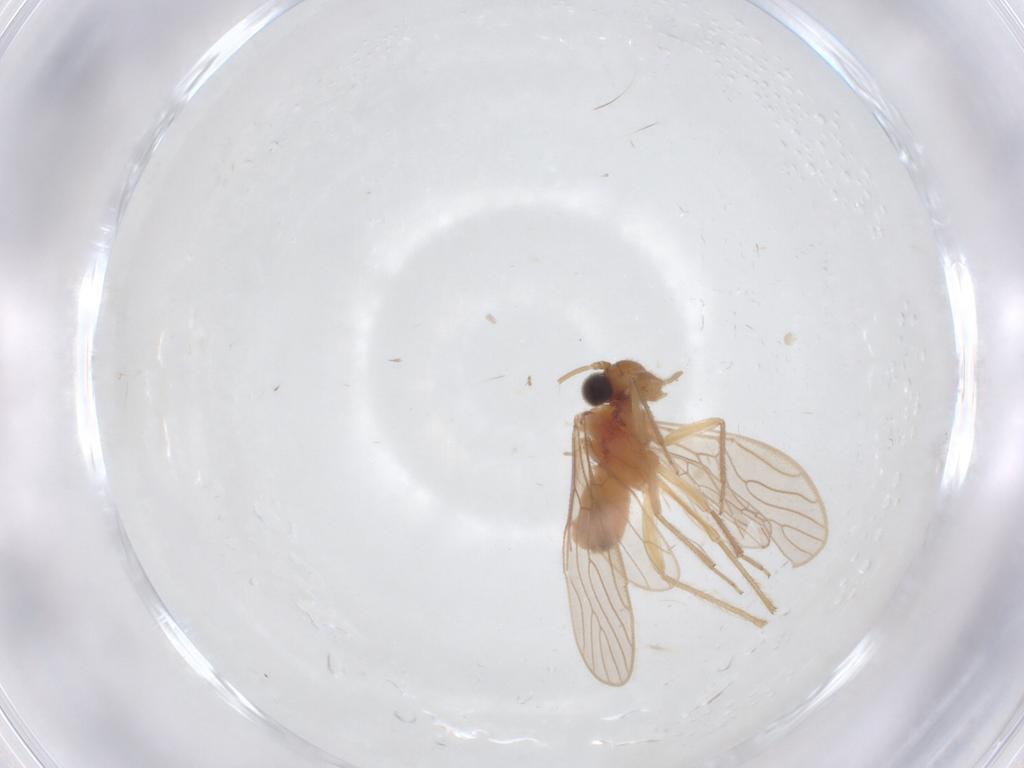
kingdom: Animalia
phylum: Arthropoda
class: Insecta
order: Psocodea
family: Epipsocidae
